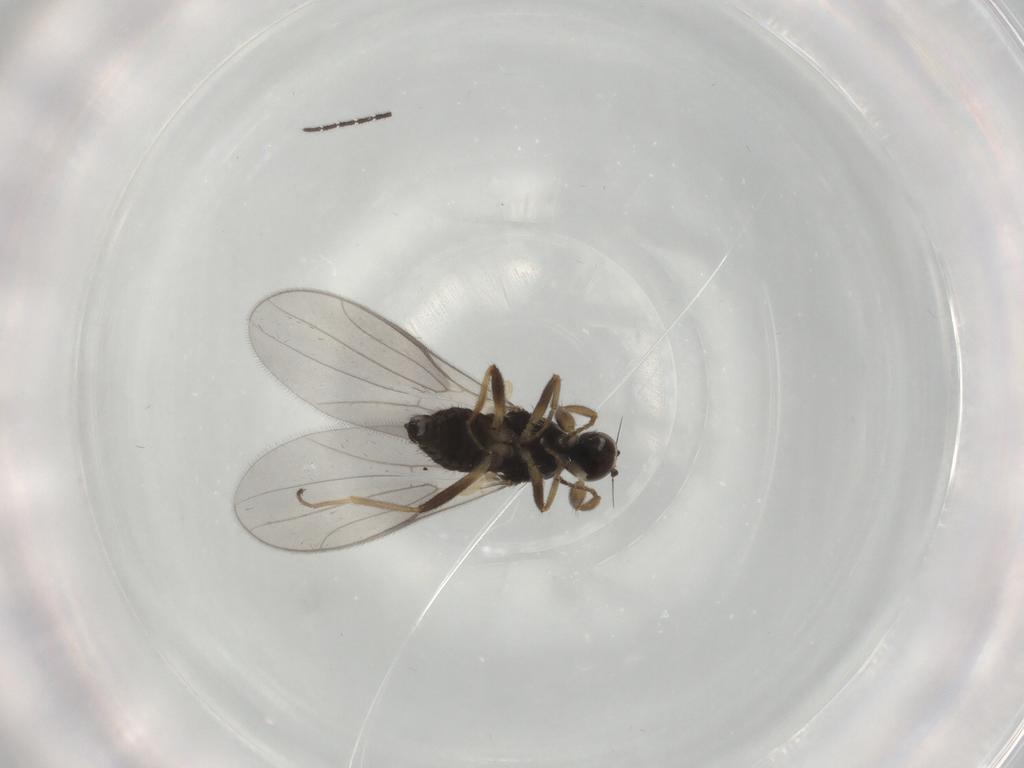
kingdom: Animalia
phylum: Arthropoda
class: Insecta
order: Diptera
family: Hybotidae
